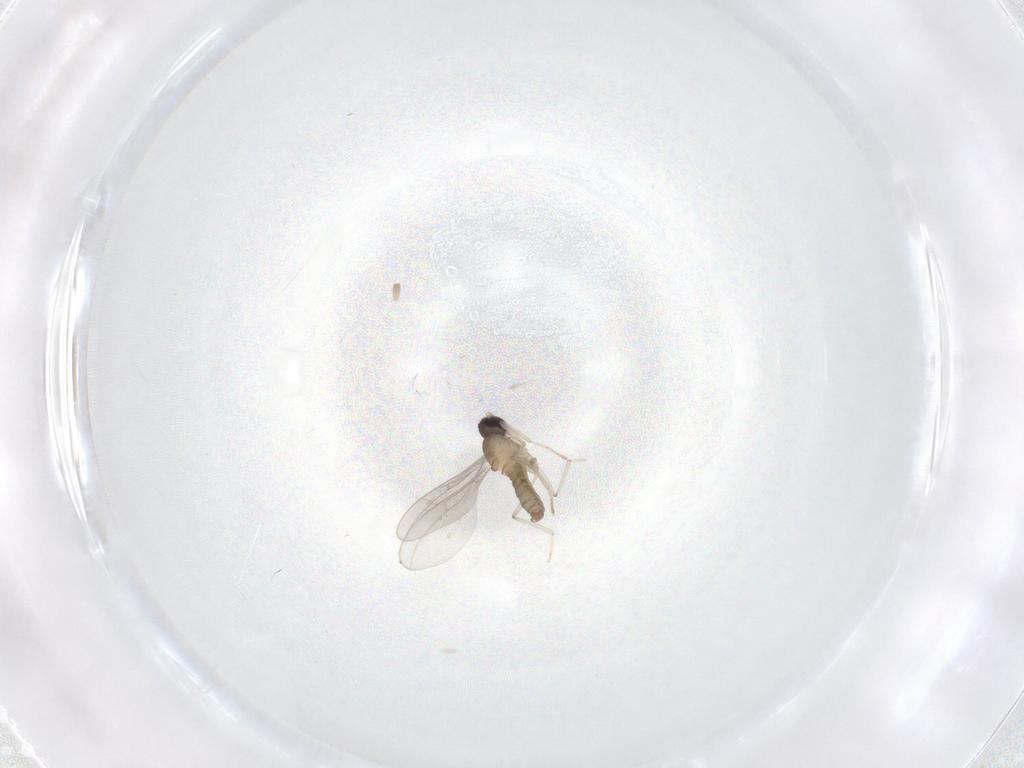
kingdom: Animalia
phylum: Arthropoda
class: Insecta
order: Diptera
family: Cecidomyiidae
